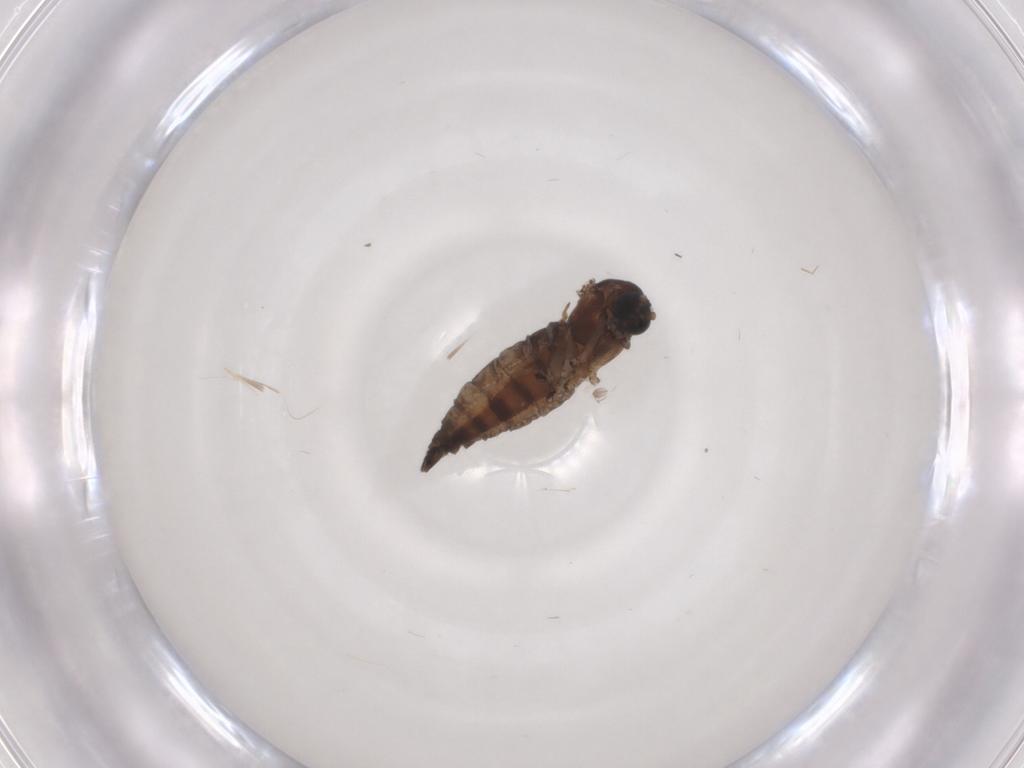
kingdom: Animalia
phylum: Arthropoda
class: Insecta
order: Diptera
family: Sciaridae
